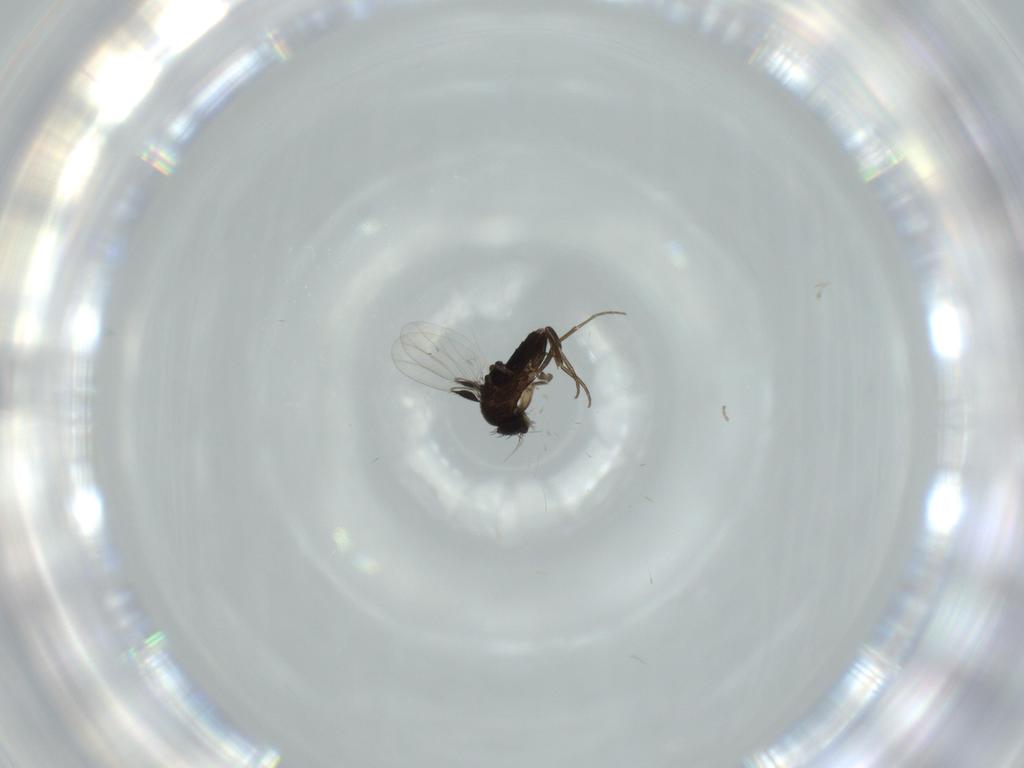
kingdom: Animalia
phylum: Arthropoda
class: Insecta
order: Diptera
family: Phoridae
